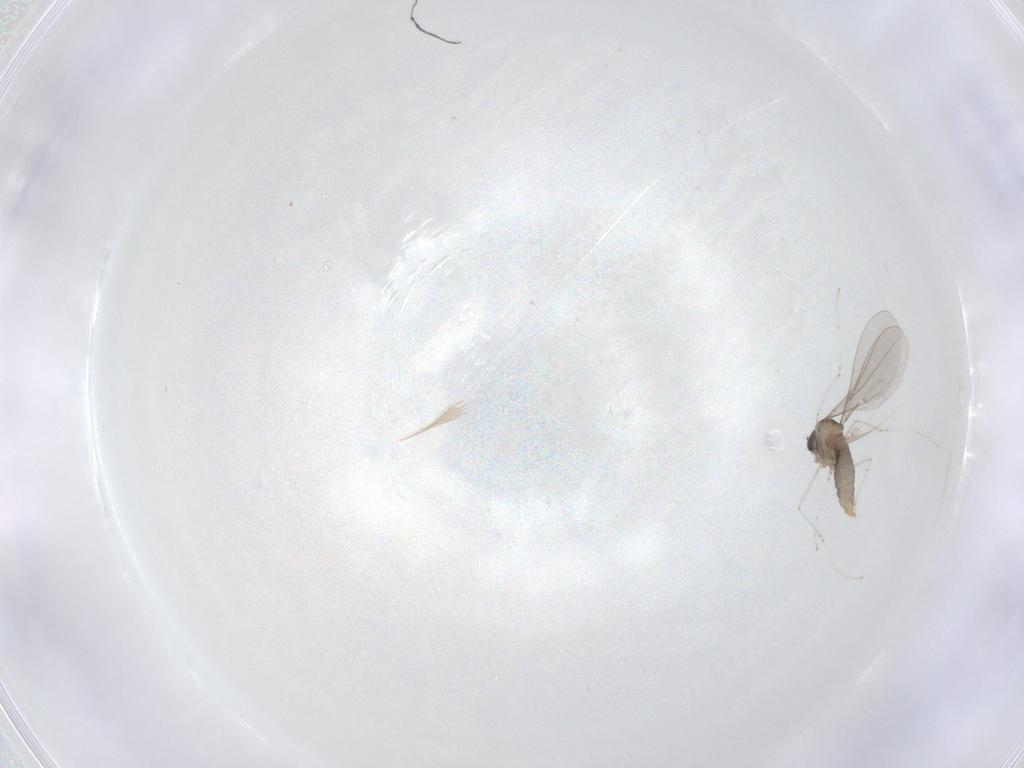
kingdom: Animalia
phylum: Arthropoda
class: Insecta
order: Diptera
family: Cecidomyiidae
